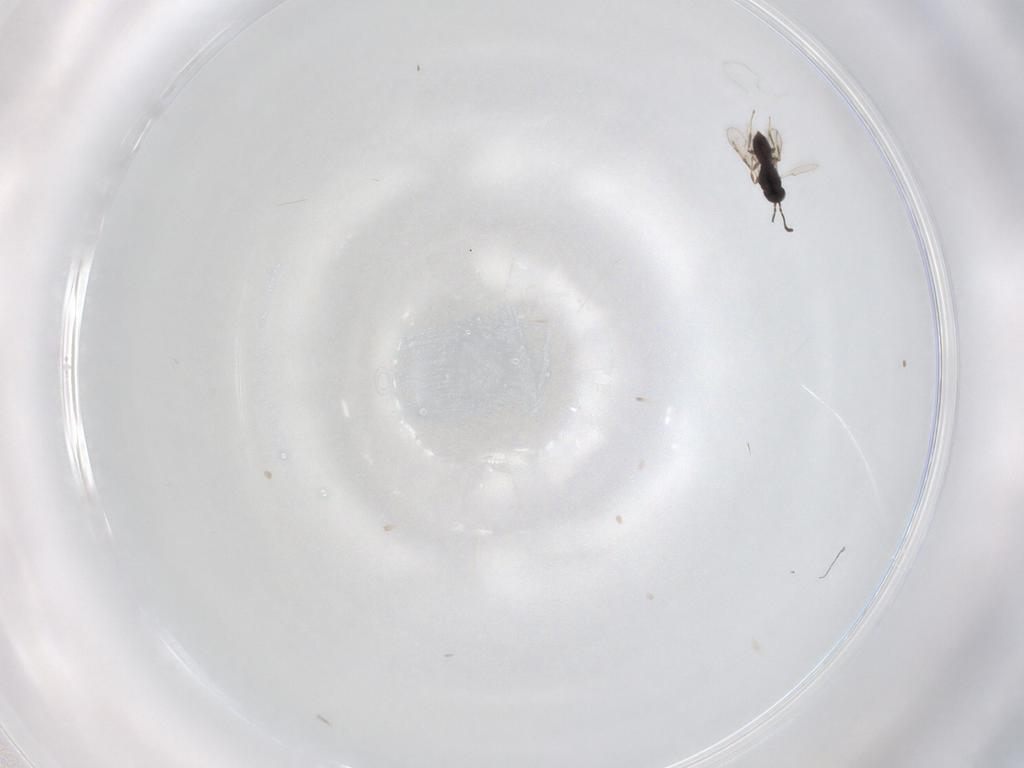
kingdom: Animalia
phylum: Arthropoda
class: Insecta
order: Hymenoptera
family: Scelionidae
